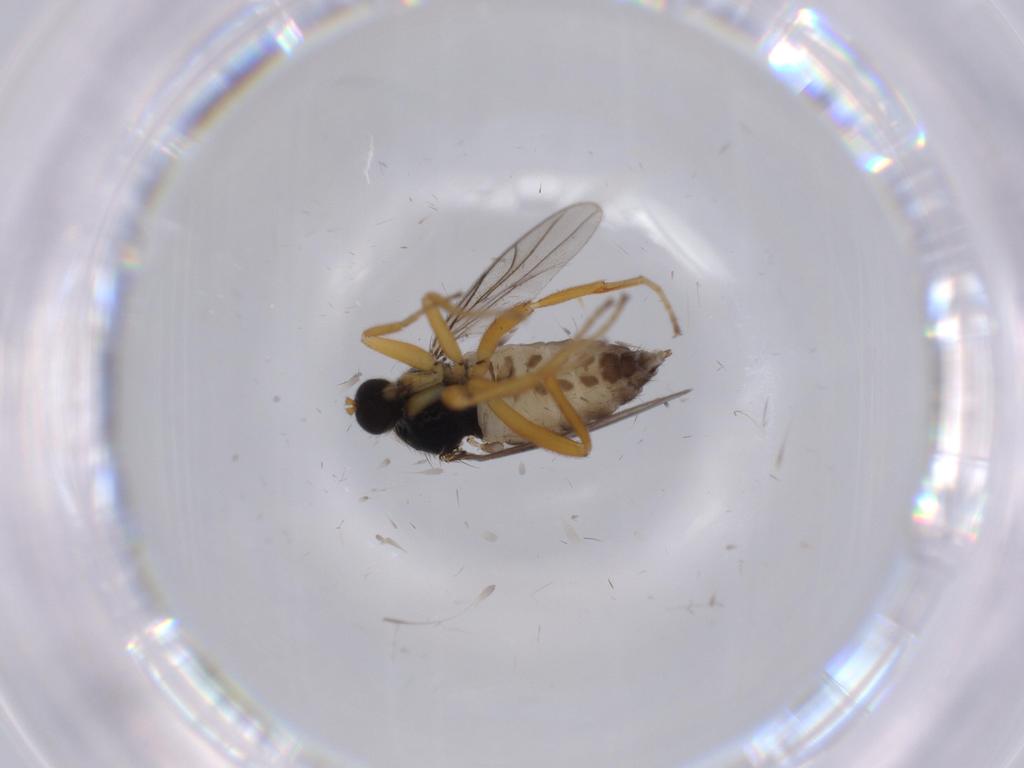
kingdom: Animalia
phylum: Arthropoda
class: Insecta
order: Diptera
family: Hybotidae
